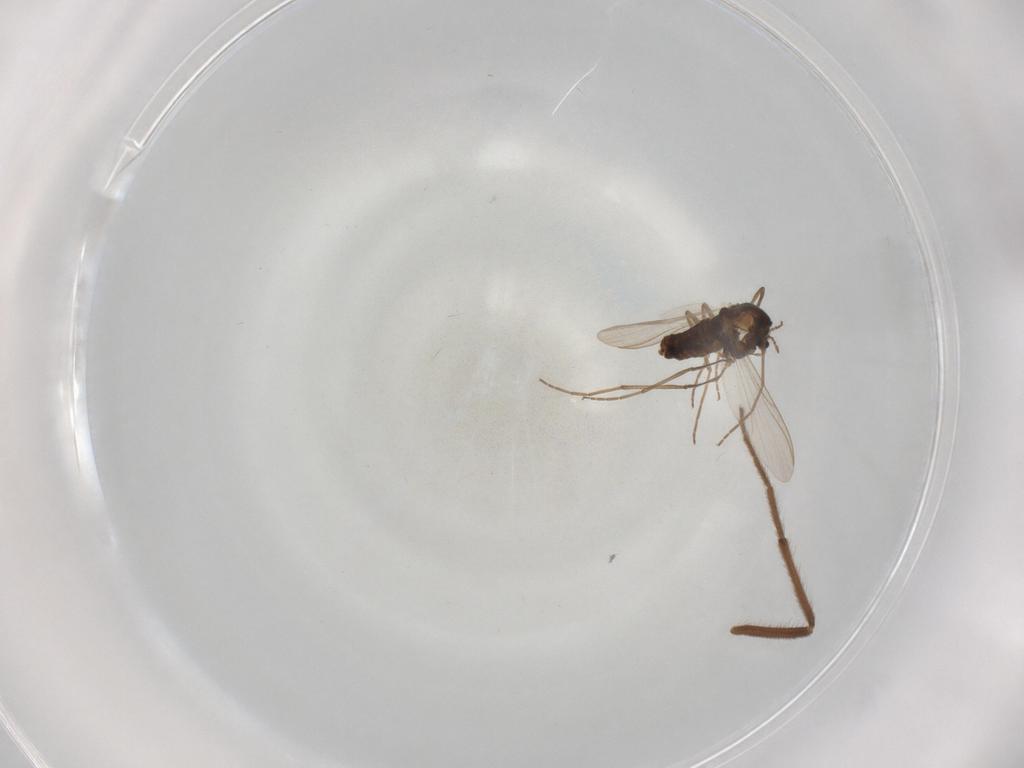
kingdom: Animalia
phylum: Arthropoda
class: Insecta
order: Diptera
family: Chironomidae
